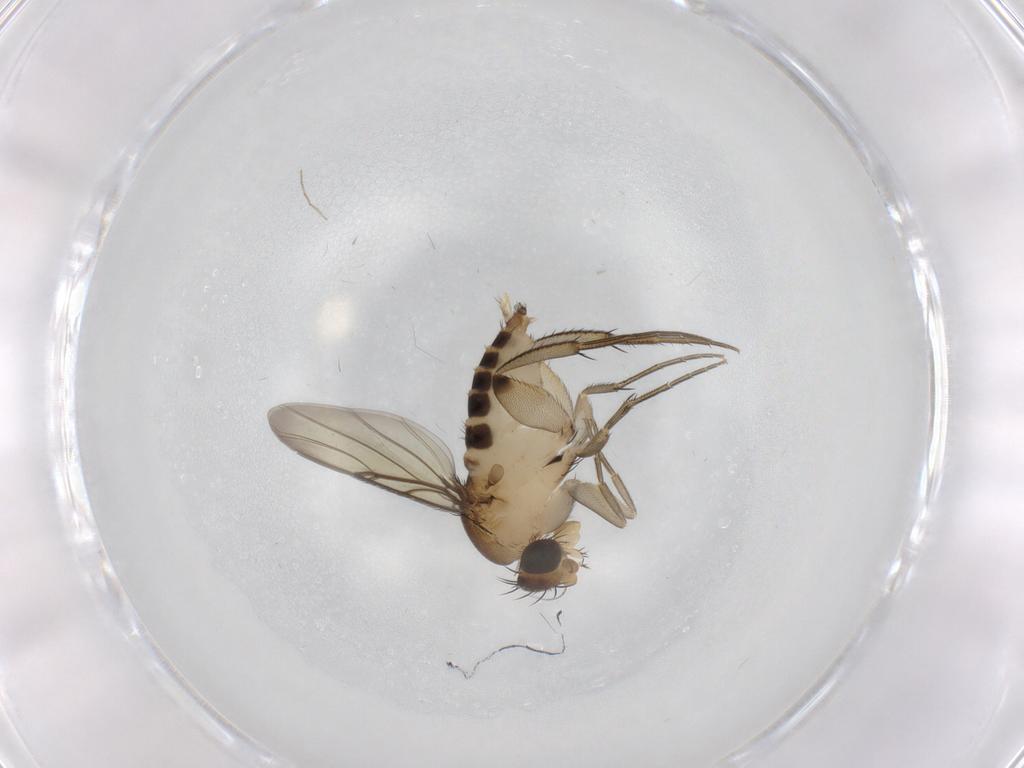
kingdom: Animalia
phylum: Arthropoda
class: Insecta
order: Diptera
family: Phoridae
